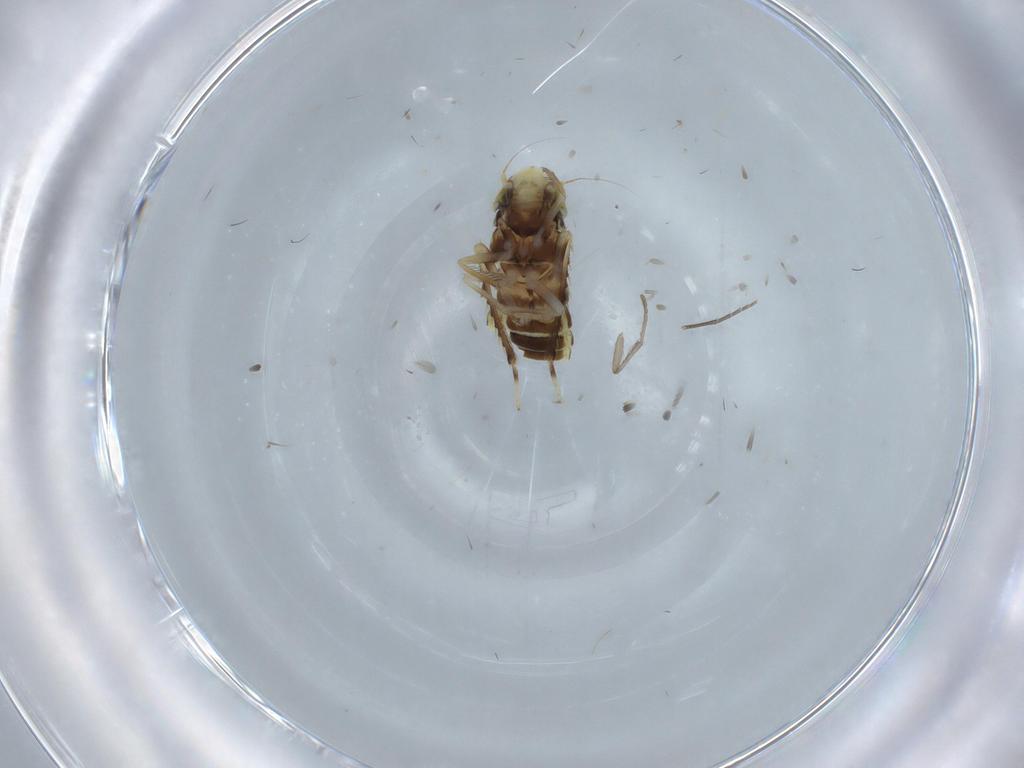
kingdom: Animalia
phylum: Arthropoda
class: Insecta
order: Hemiptera
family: Cicadellidae
